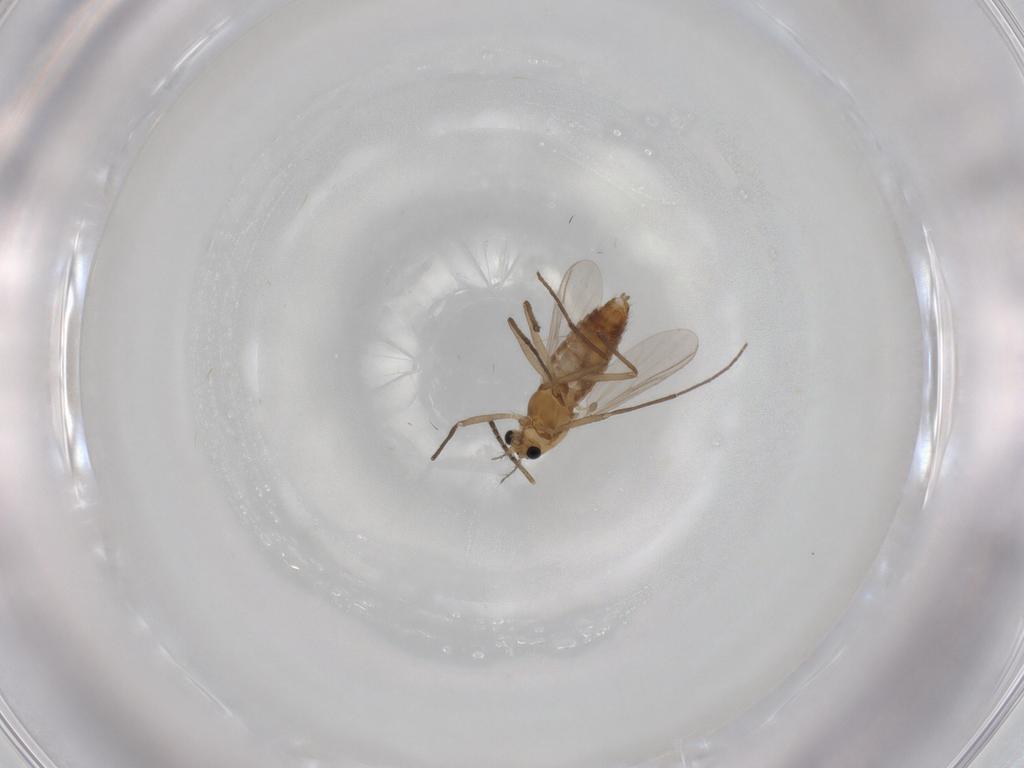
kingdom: Animalia
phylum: Arthropoda
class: Insecta
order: Diptera
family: Chironomidae
